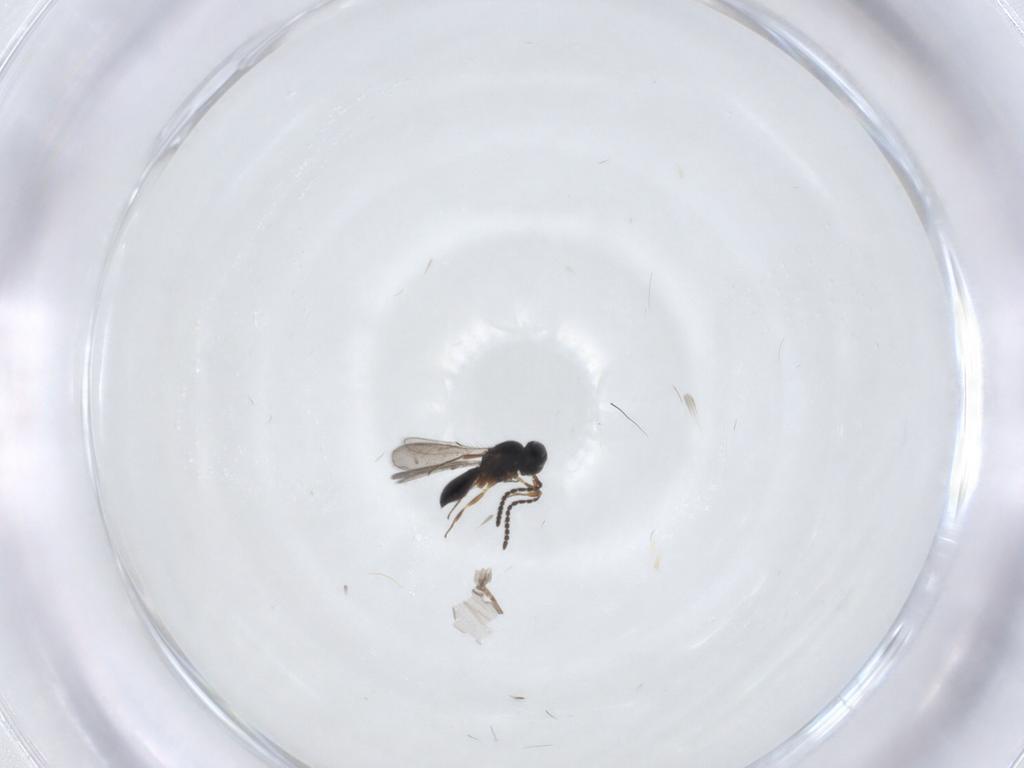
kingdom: Animalia
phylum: Arthropoda
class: Insecta
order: Hymenoptera
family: Scelionidae
